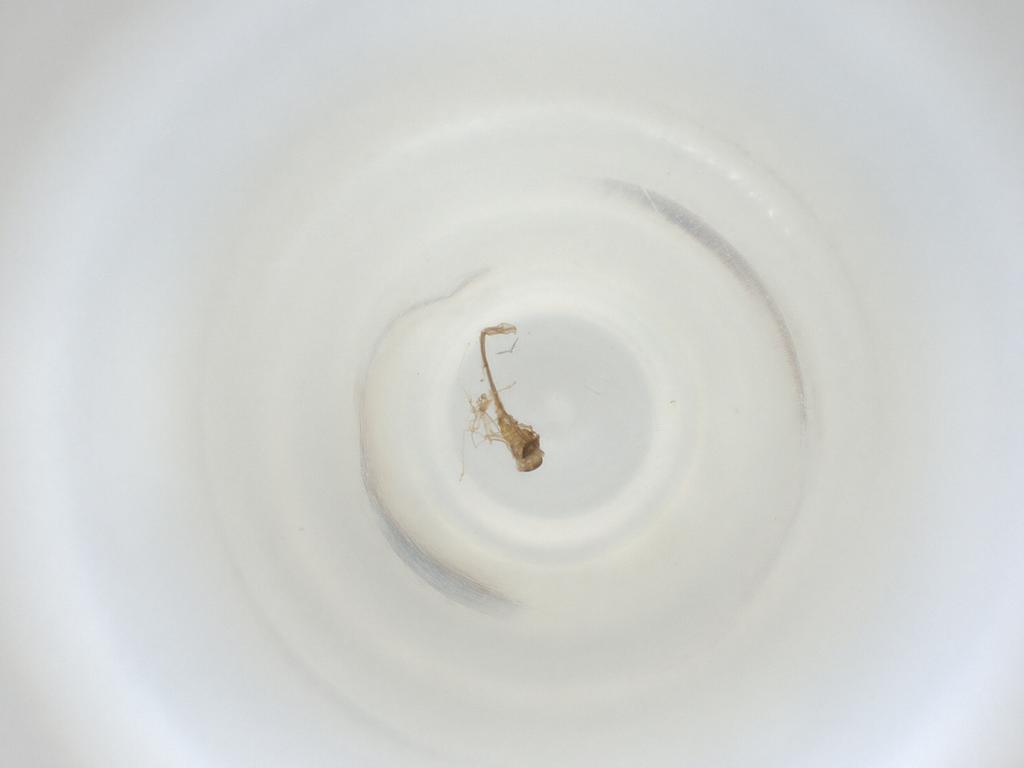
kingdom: Animalia
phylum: Arthropoda
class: Insecta
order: Diptera
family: Cecidomyiidae
